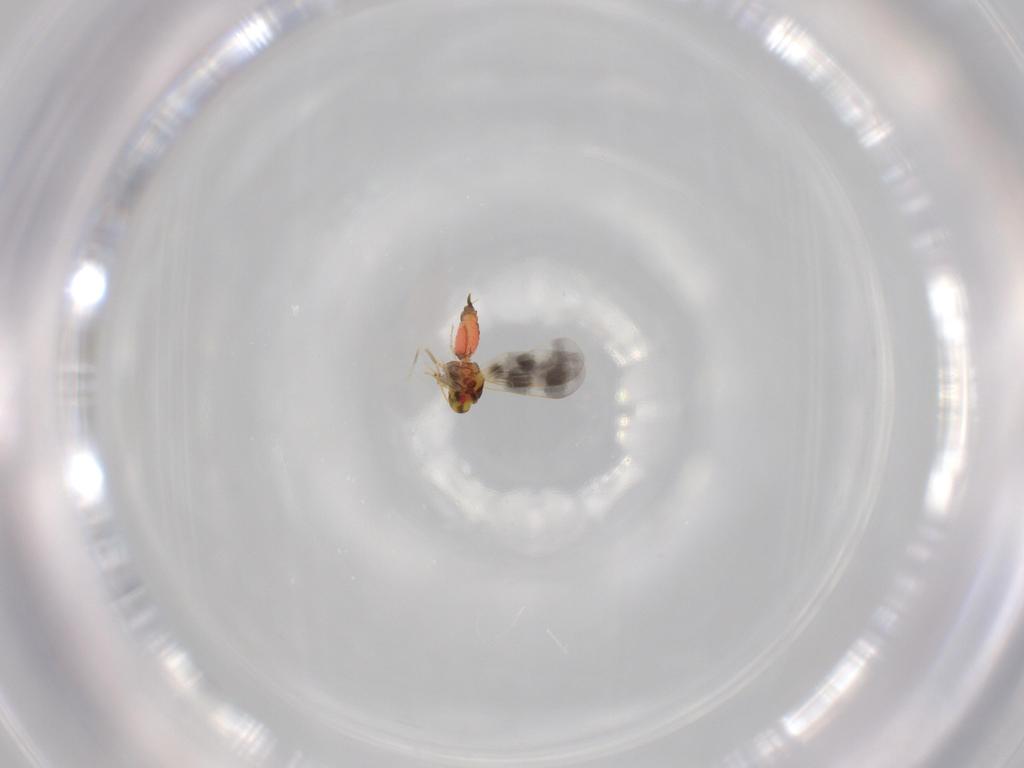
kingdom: Animalia
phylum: Arthropoda
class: Insecta
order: Hemiptera
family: Aleyrodidae
